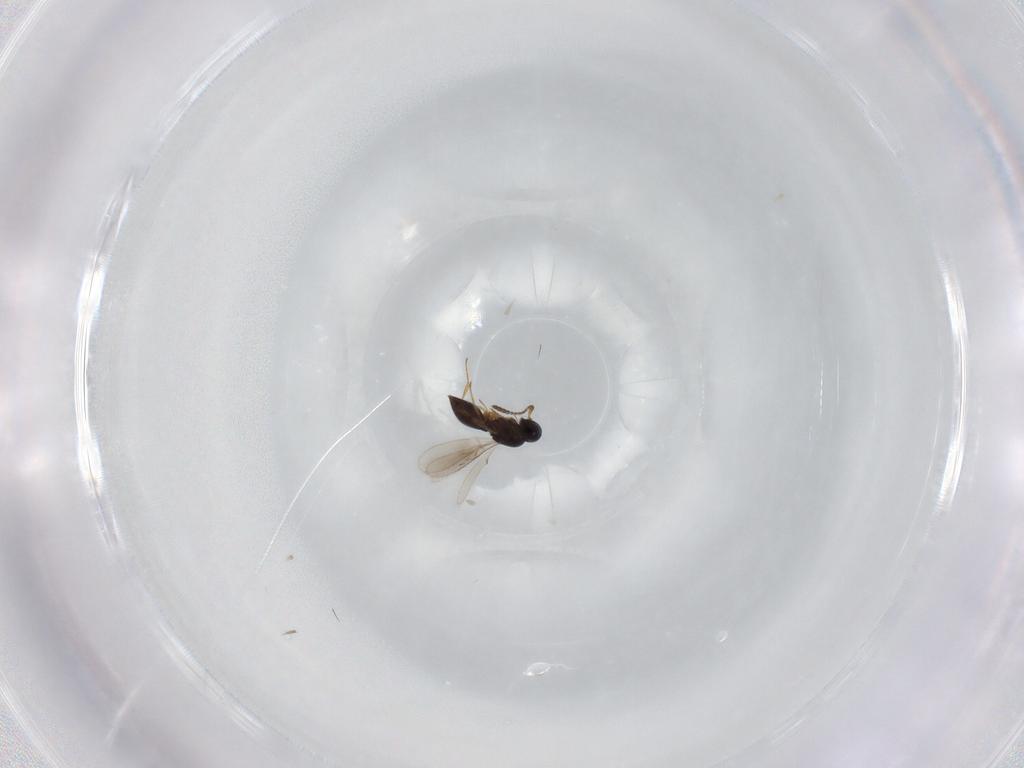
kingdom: Animalia
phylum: Arthropoda
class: Insecta
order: Hymenoptera
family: Scelionidae
